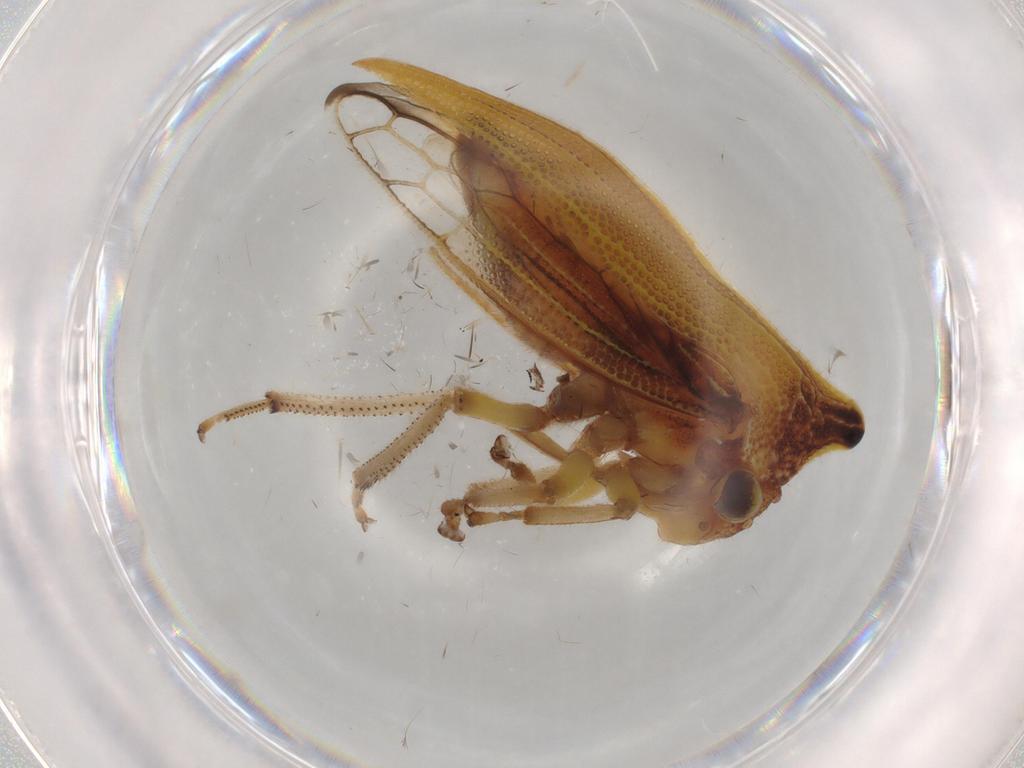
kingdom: Animalia
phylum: Arthropoda
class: Insecta
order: Hemiptera
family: Membracidae
